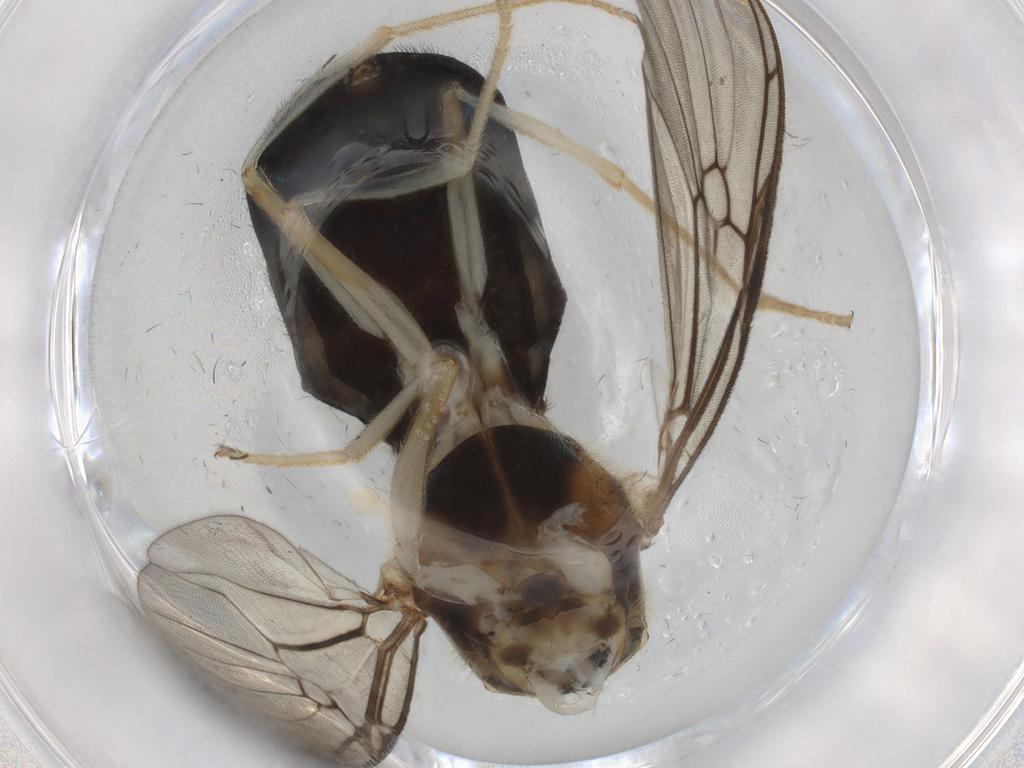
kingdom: Animalia
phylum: Arthropoda
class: Insecta
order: Diptera
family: Stratiomyidae
